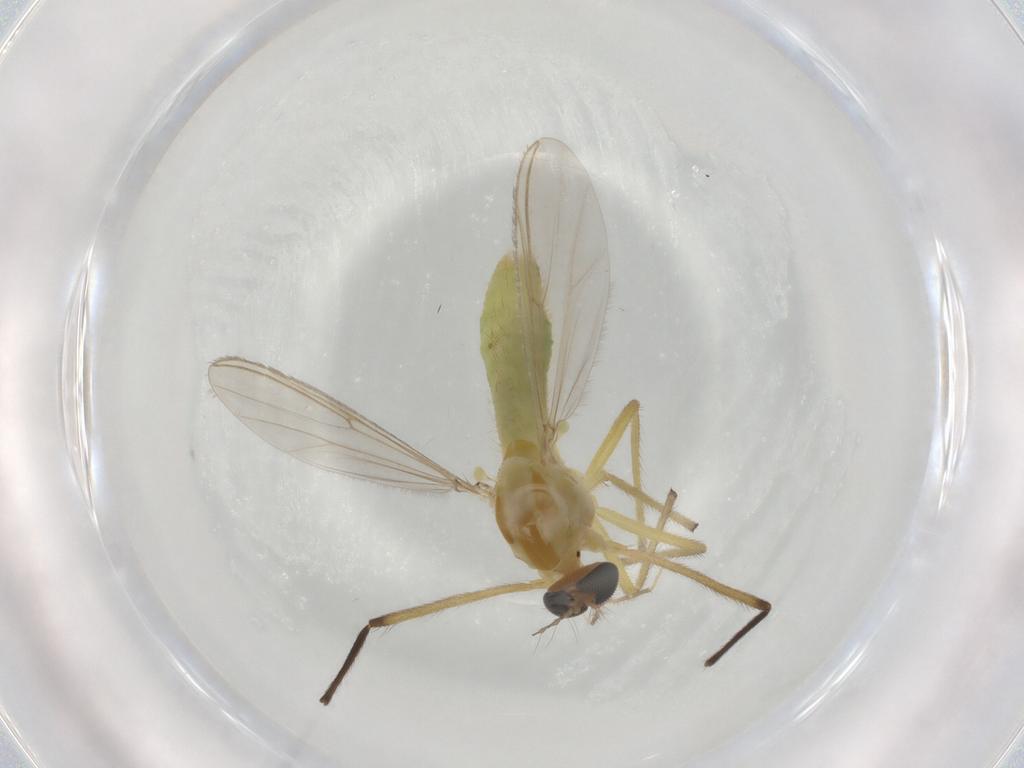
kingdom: Animalia
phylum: Arthropoda
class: Insecta
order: Diptera
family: Chironomidae
